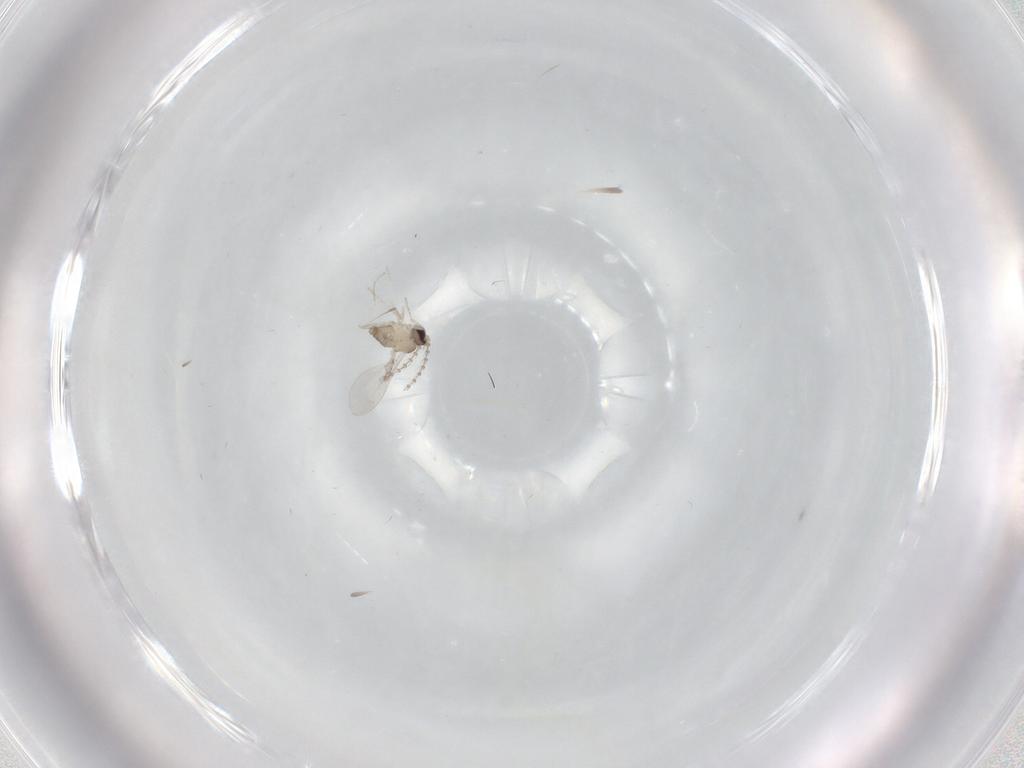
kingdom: Animalia
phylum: Arthropoda
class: Insecta
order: Diptera
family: Cecidomyiidae
